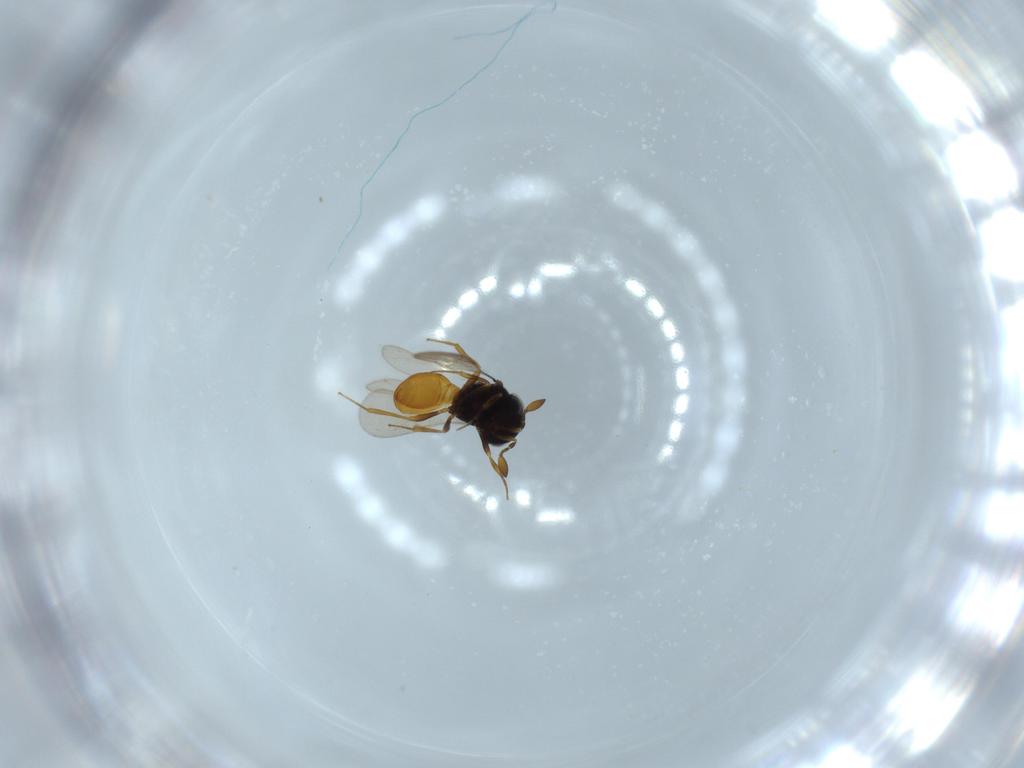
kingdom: Animalia
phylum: Arthropoda
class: Insecta
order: Hymenoptera
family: Scelionidae
